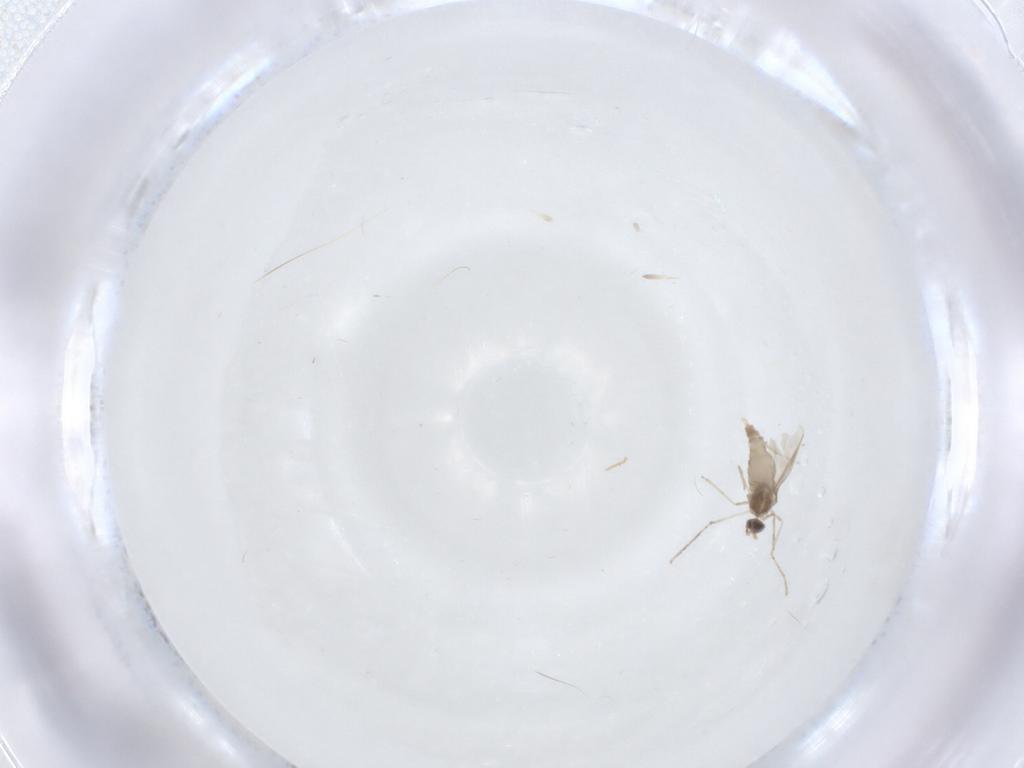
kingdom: Animalia
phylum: Arthropoda
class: Insecta
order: Diptera
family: Cecidomyiidae
